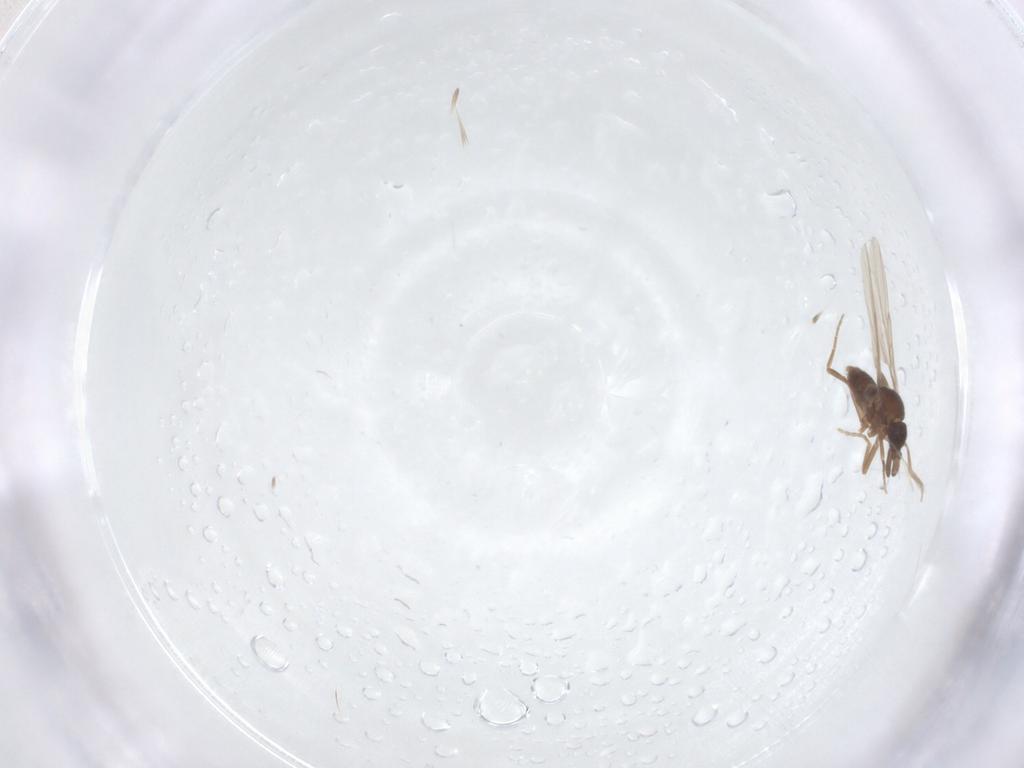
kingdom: Animalia
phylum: Arthropoda
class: Insecta
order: Diptera
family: Phoridae
